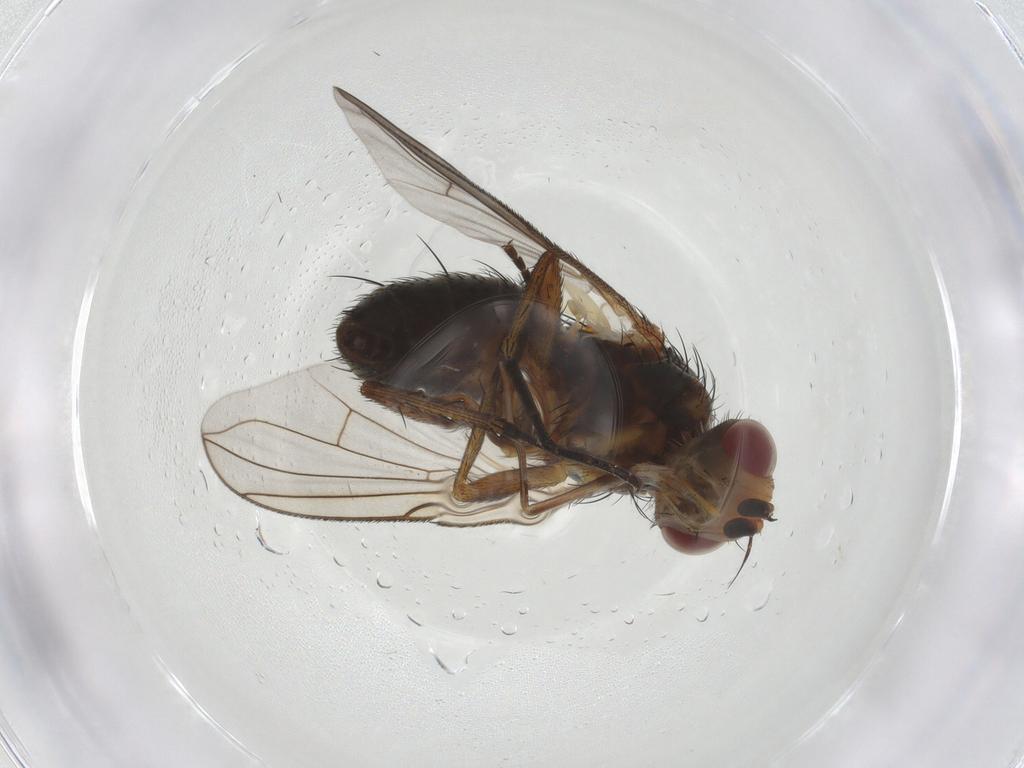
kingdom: Animalia
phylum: Arthropoda
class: Insecta
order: Diptera
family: Tachinidae
